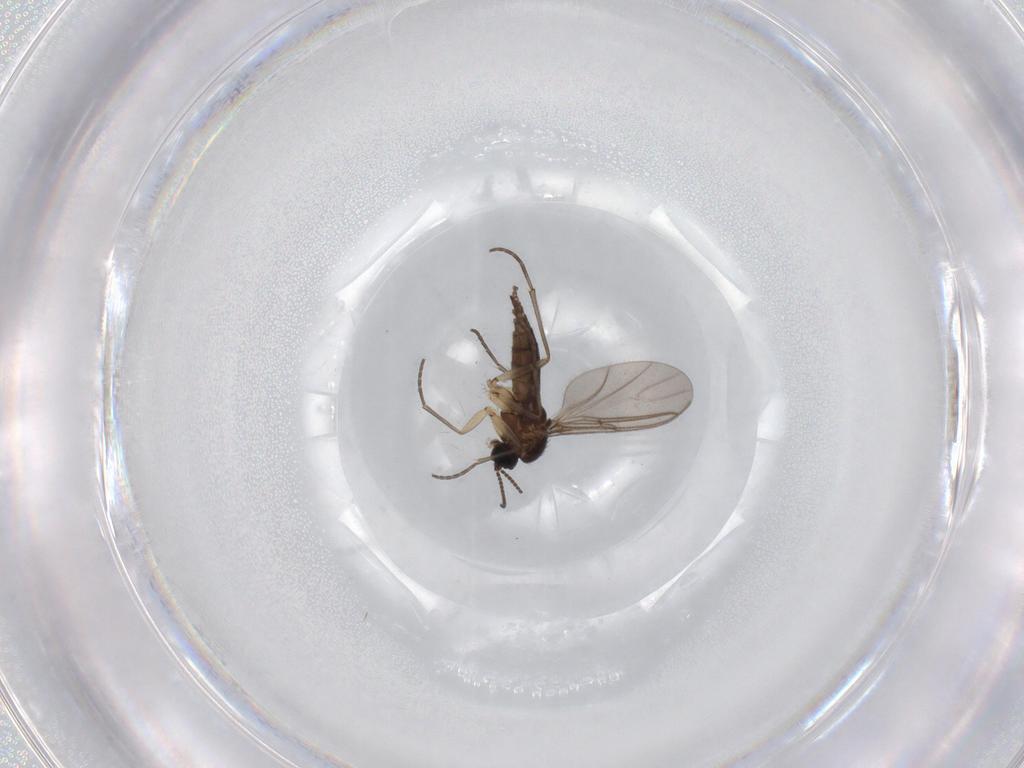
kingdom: Animalia
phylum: Arthropoda
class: Insecta
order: Diptera
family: Sciaridae
